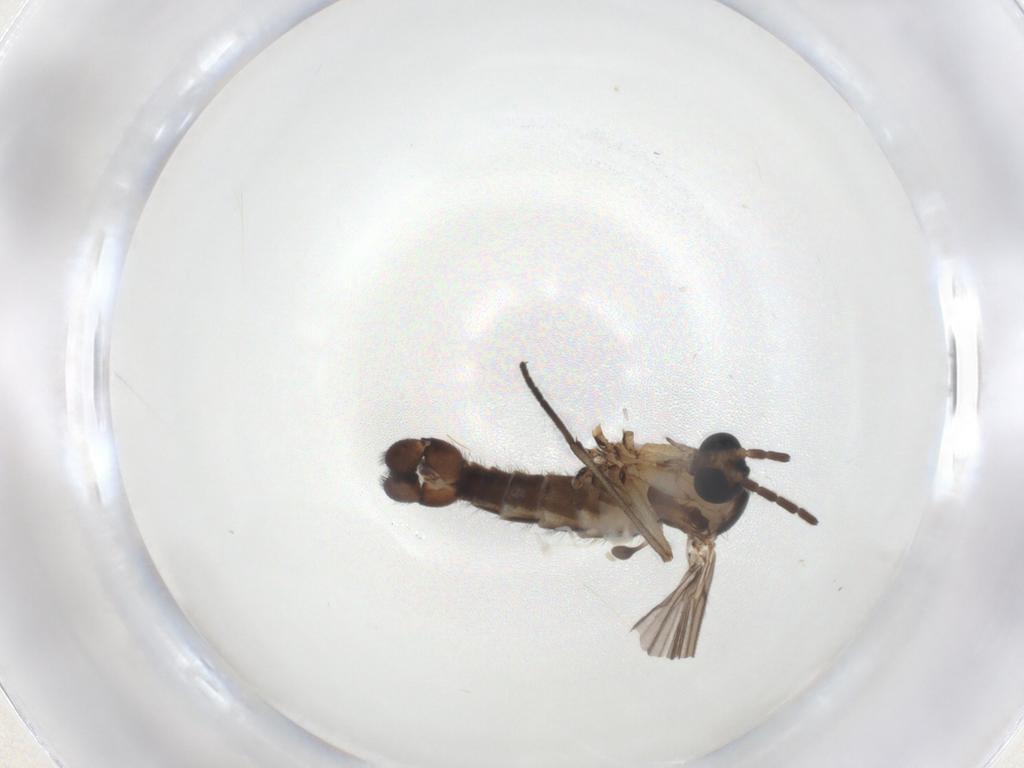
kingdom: Animalia
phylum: Arthropoda
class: Insecta
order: Diptera
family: Sciaridae
